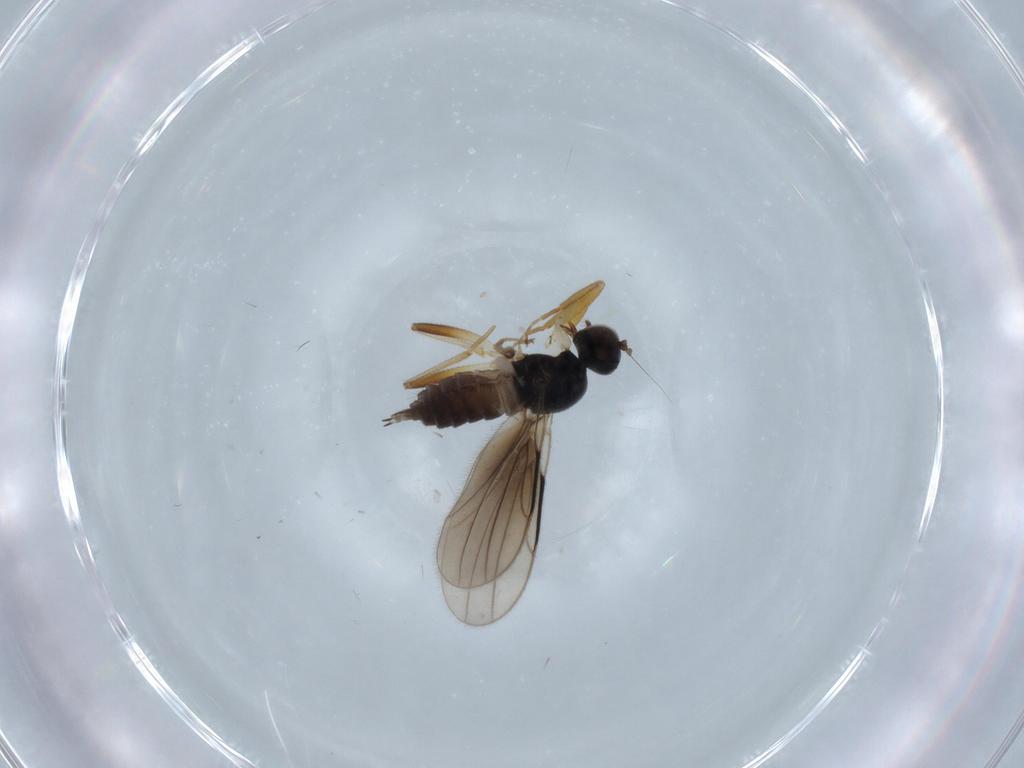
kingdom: Animalia
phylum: Arthropoda
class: Insecta
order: Diptera
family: Hybotidae
